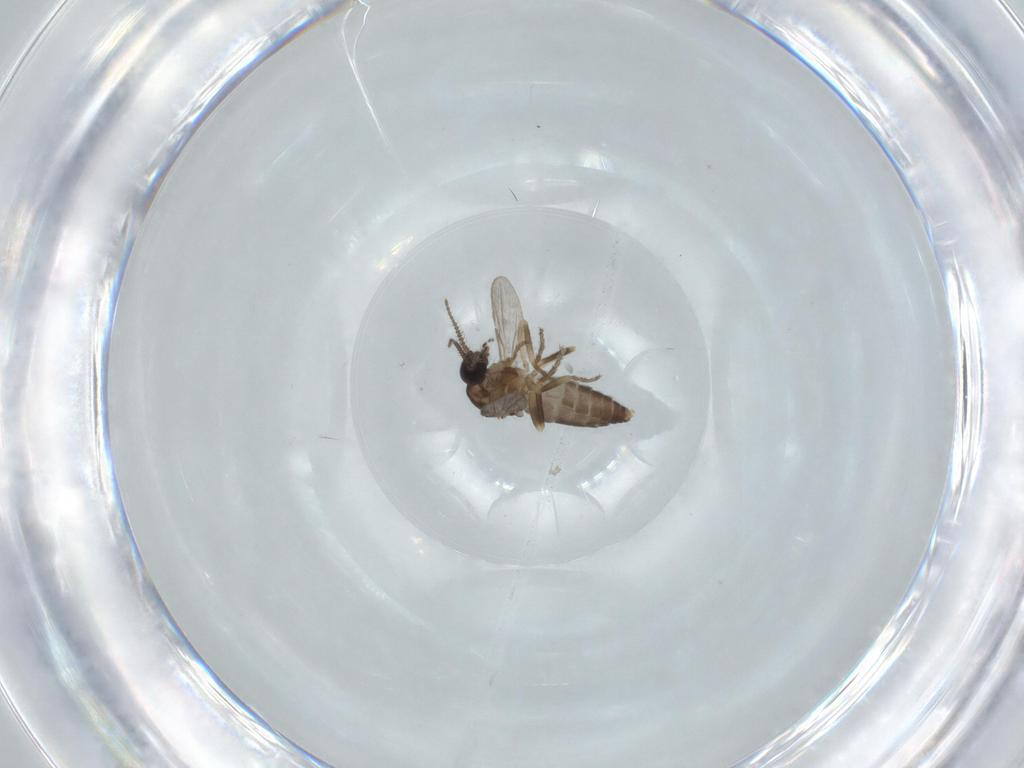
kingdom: Animalia
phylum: Arthropoda
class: Insecta
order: Diptera
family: Ceratopogonidae
